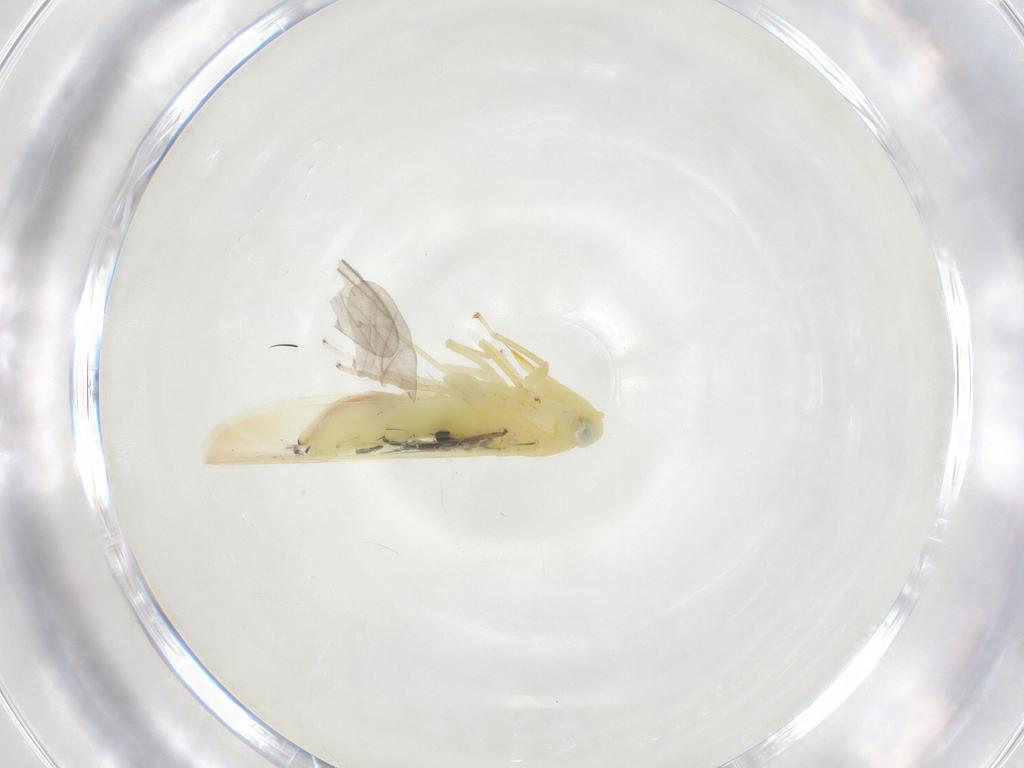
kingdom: Animalia
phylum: Arthropoda
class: Insecta
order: Hemiptera
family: Cicadellidae
